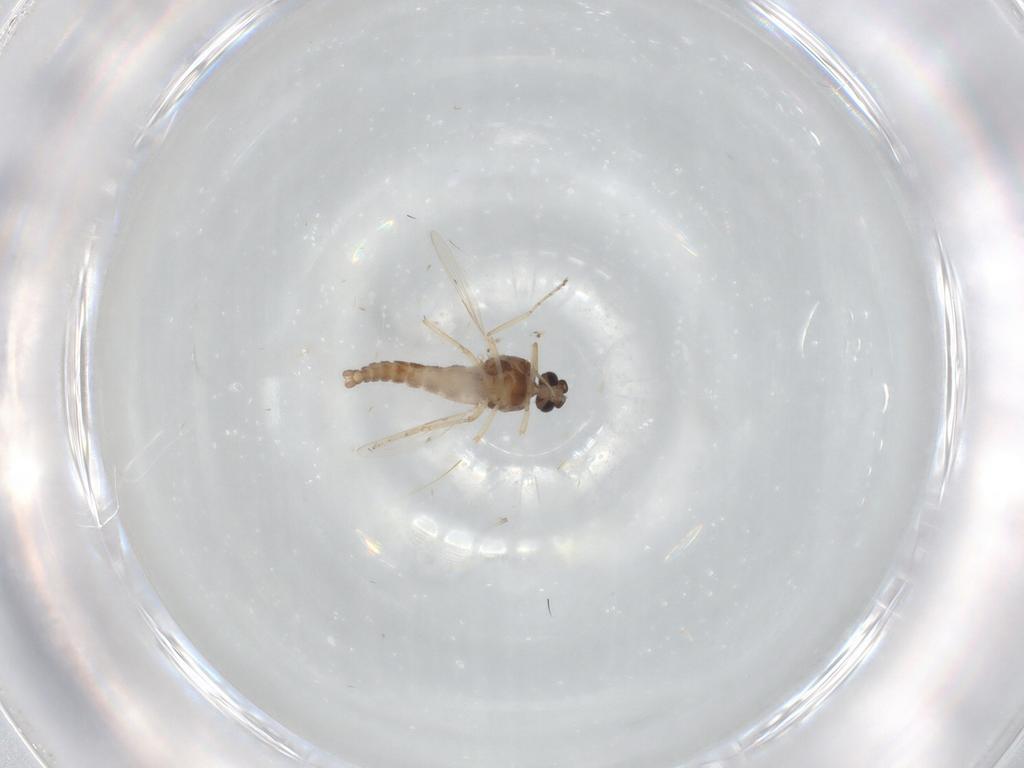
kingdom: Animalia
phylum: Arthropoda
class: Insecta
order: Diptera
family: Ceratopogonidae
